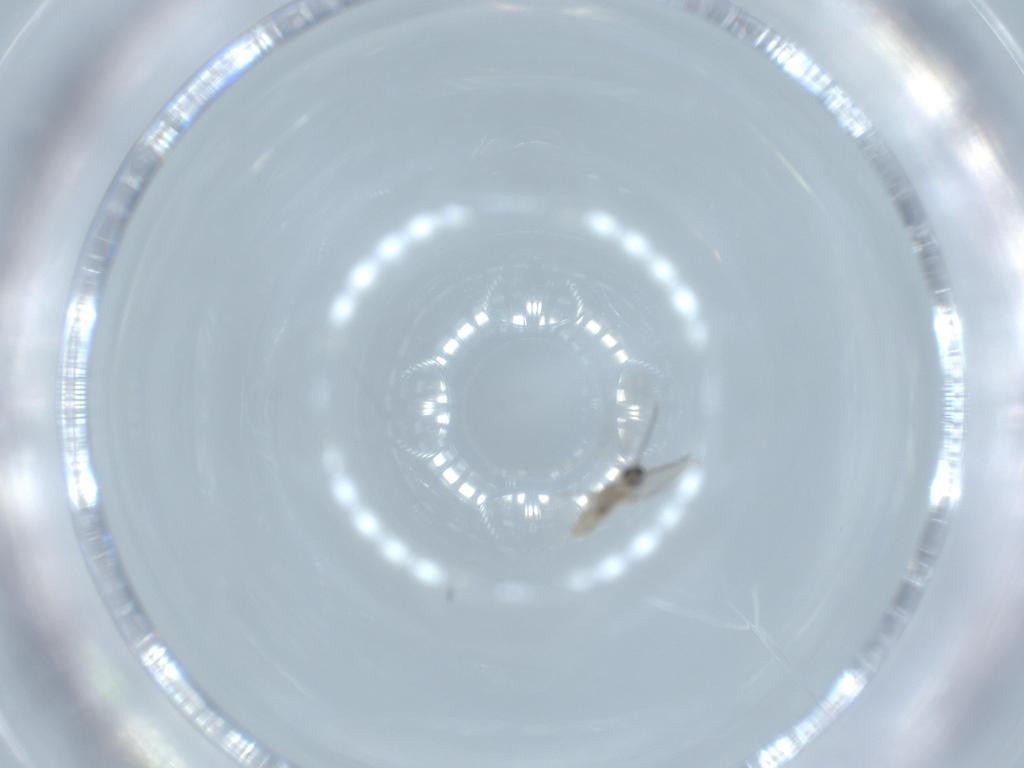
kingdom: Animalia
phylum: Arthropoda
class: Insecta
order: Diptera
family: Cecidomyiidae
